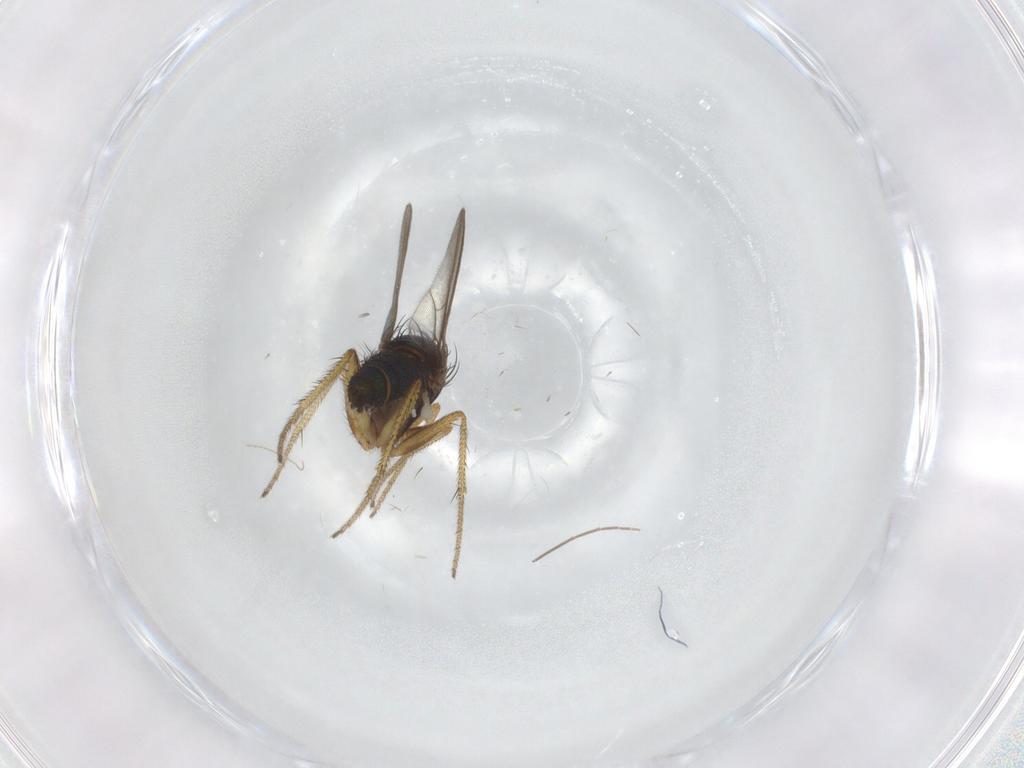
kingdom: Animalia
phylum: Arthropoda
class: Insecta
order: Diptera
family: Dolichopodidae
